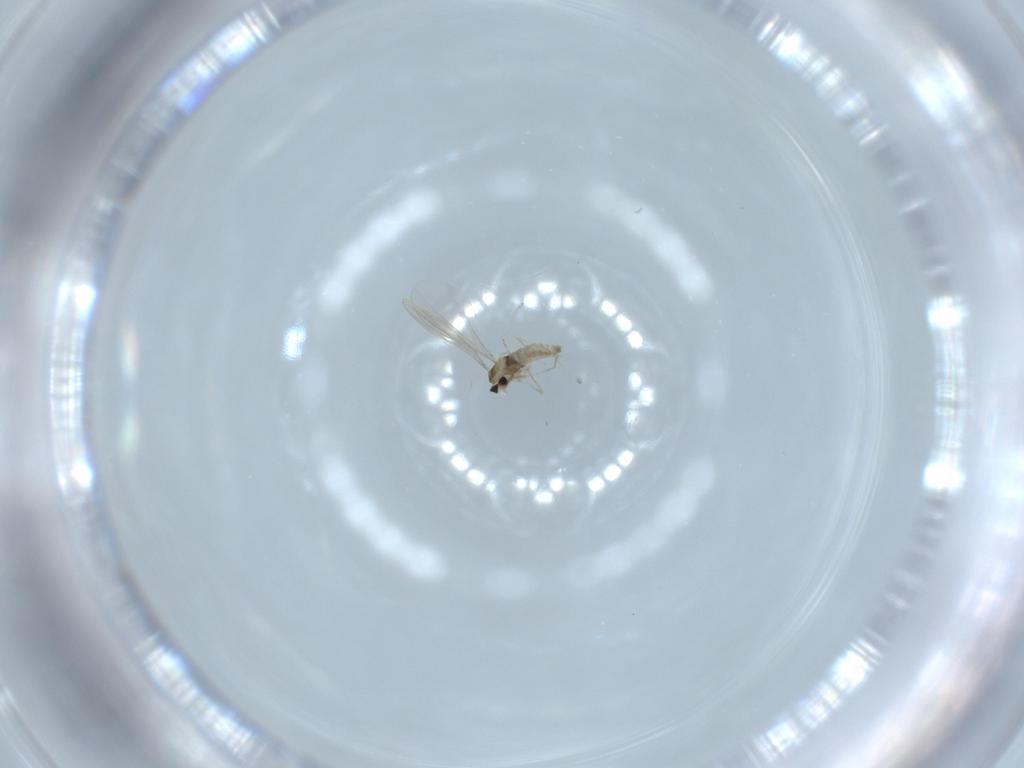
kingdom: Animalia
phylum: Arthropoda
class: Insecta
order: Diptera
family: Cecidomyiidae
